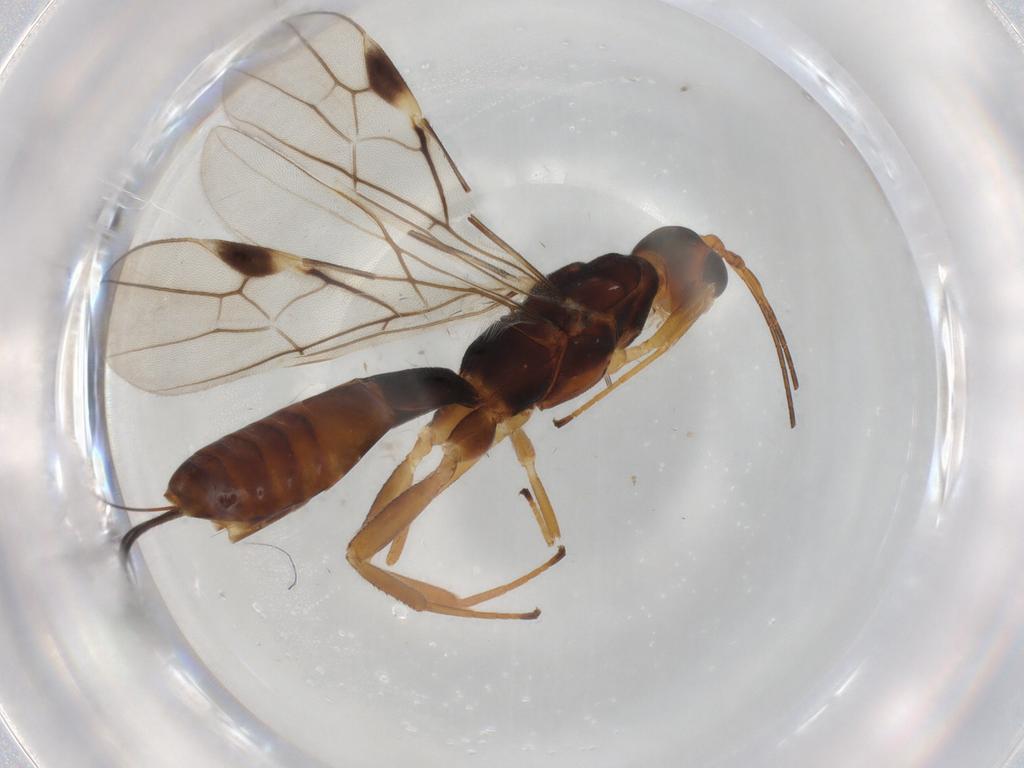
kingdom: Animalia
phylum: Arthropoda
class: Insecta
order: Hymenoptera
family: Braconidae
